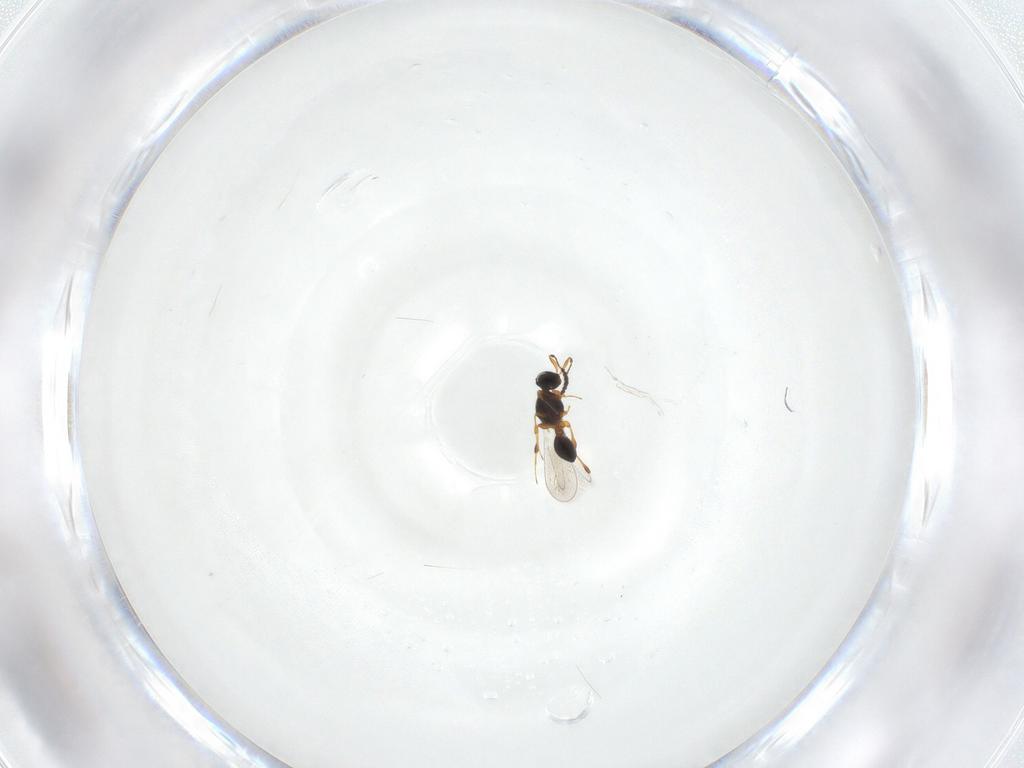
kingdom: Animalia
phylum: Arthropoda
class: Insecta
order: Hymenoptera
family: Platygastridae
